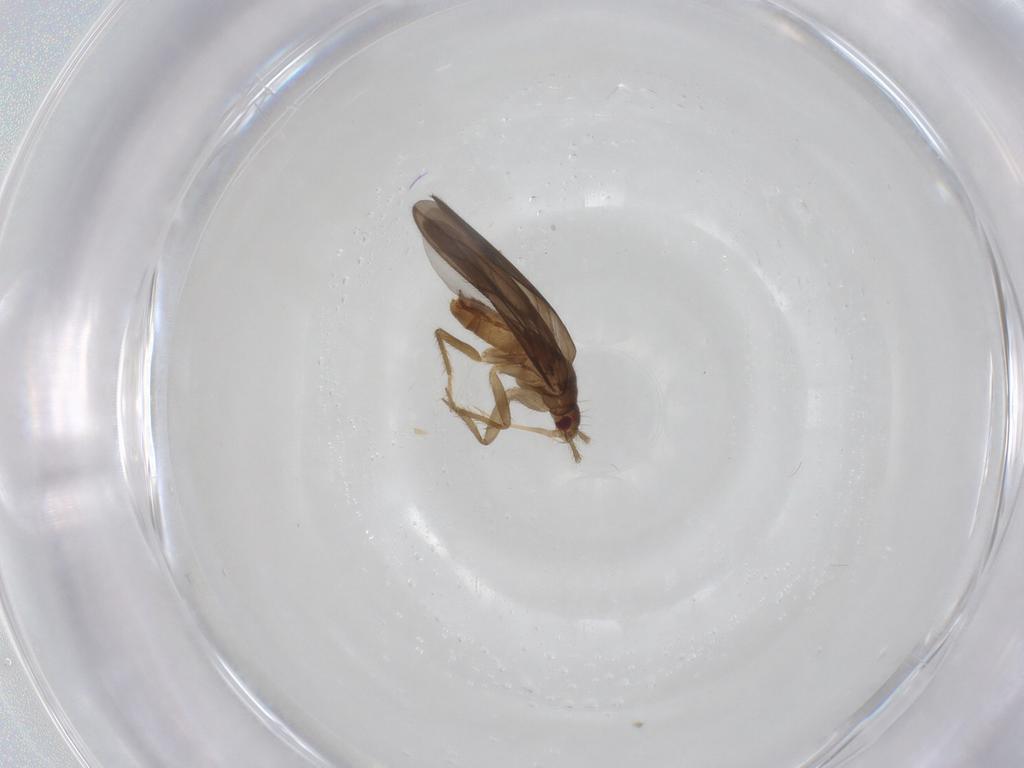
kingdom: Animalia
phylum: Arthropoda
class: Insecta
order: Hemiptera
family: Ceratocombidae
